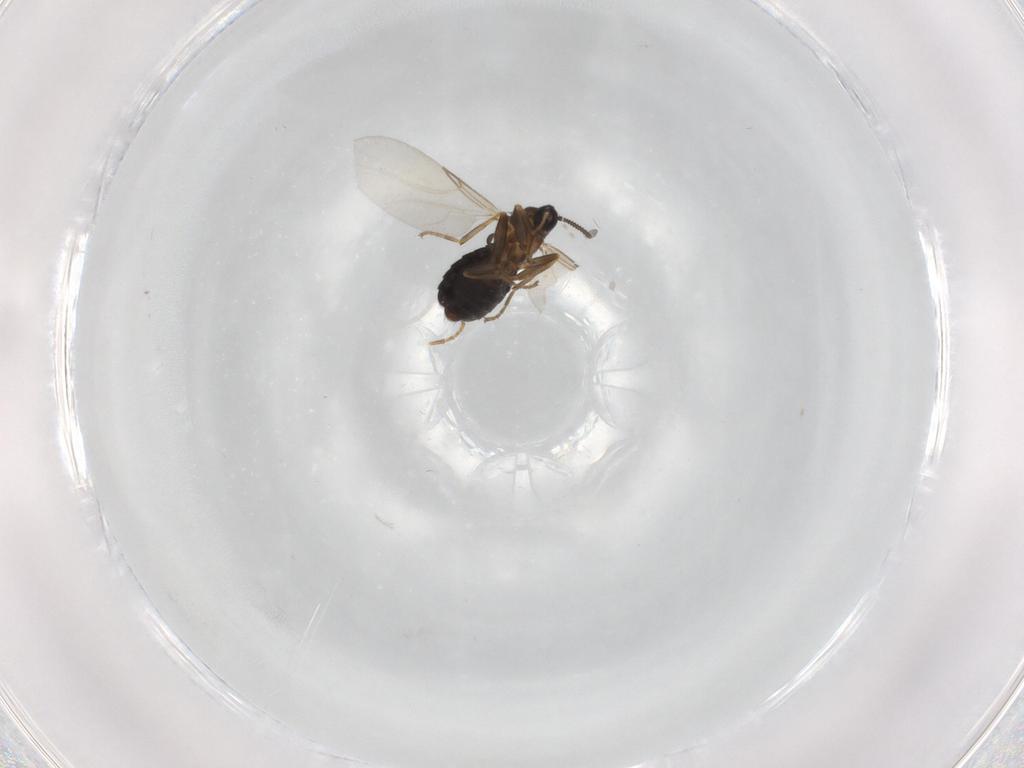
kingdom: Animalia
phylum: Arthropoda
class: Insecta
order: Diptera
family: Scatopsidae
